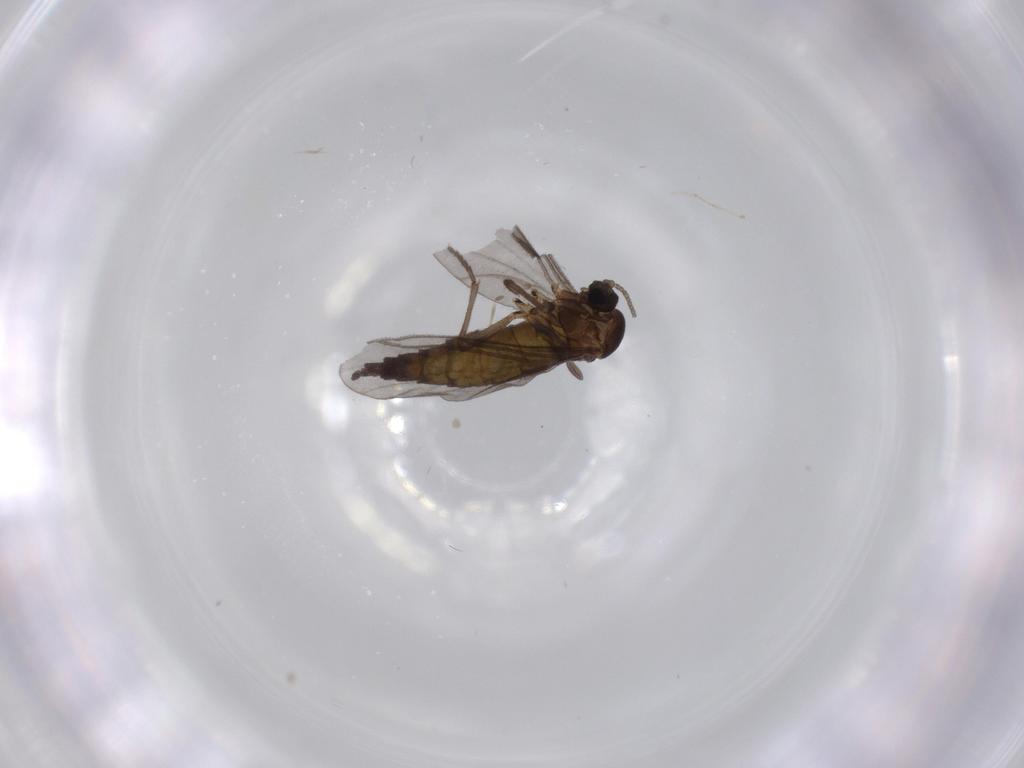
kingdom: Animalia
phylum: Arthropoda
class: Insecta
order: Diptera
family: Sciaridae
